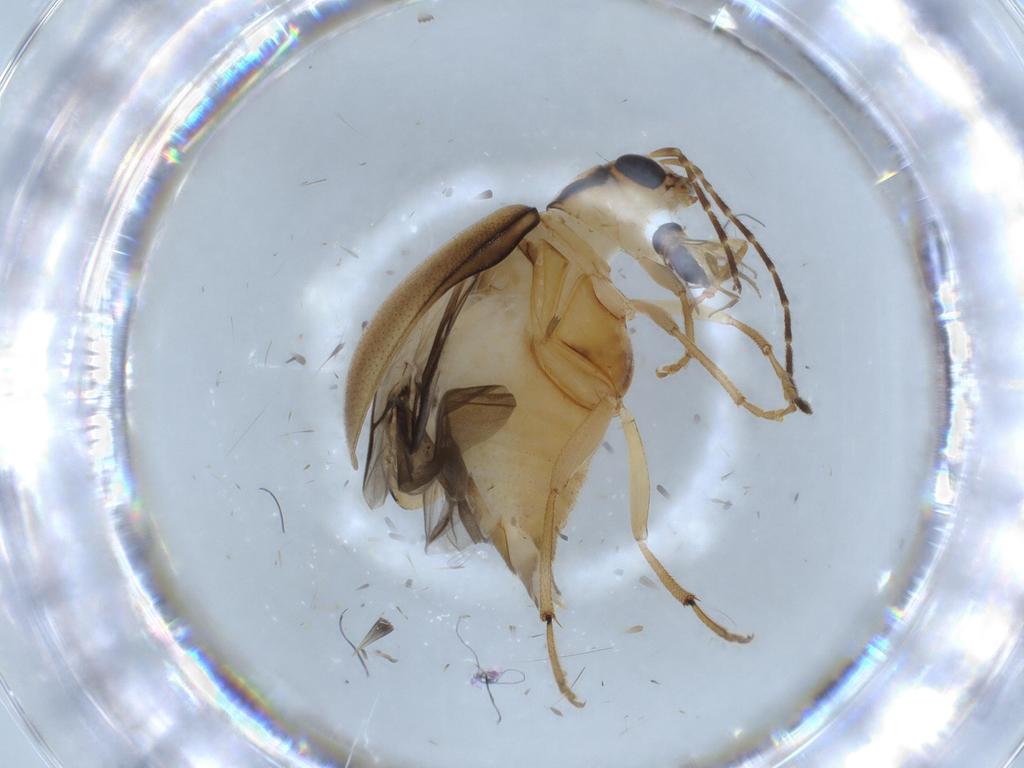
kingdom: Animalia
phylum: Arthropoda
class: Insecta
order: Coleoptera
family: Chrysomelidae
